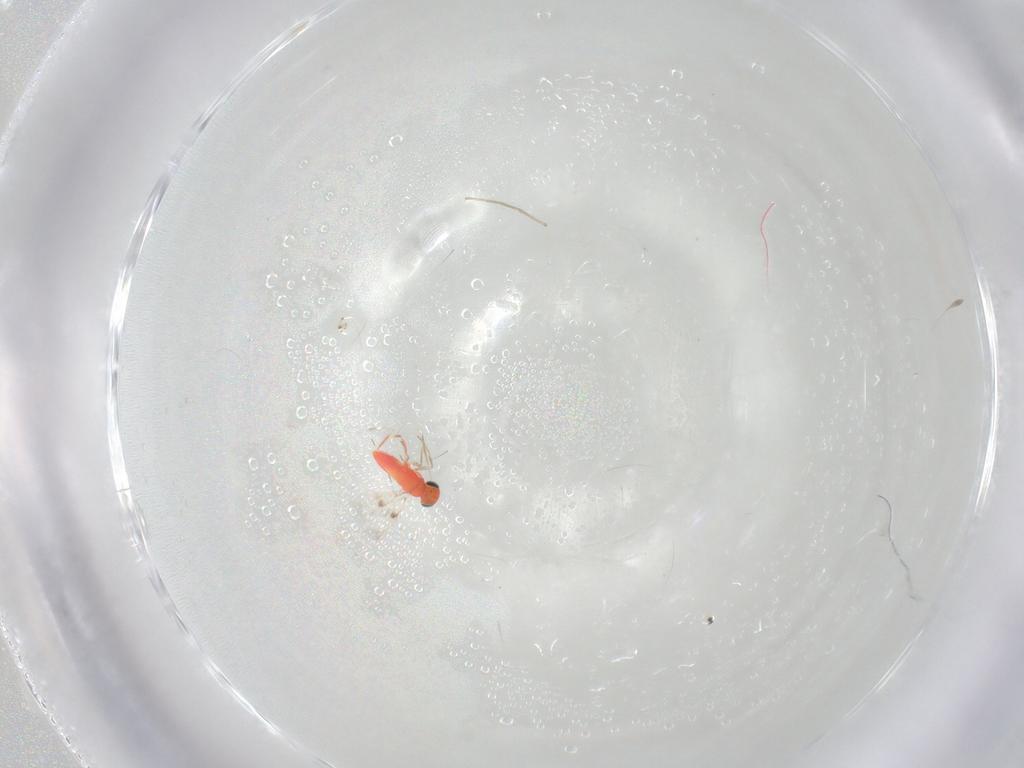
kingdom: Animalia
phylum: Arthropoda
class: Insecta
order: Hymenoptera
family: Trichogrammatidae
